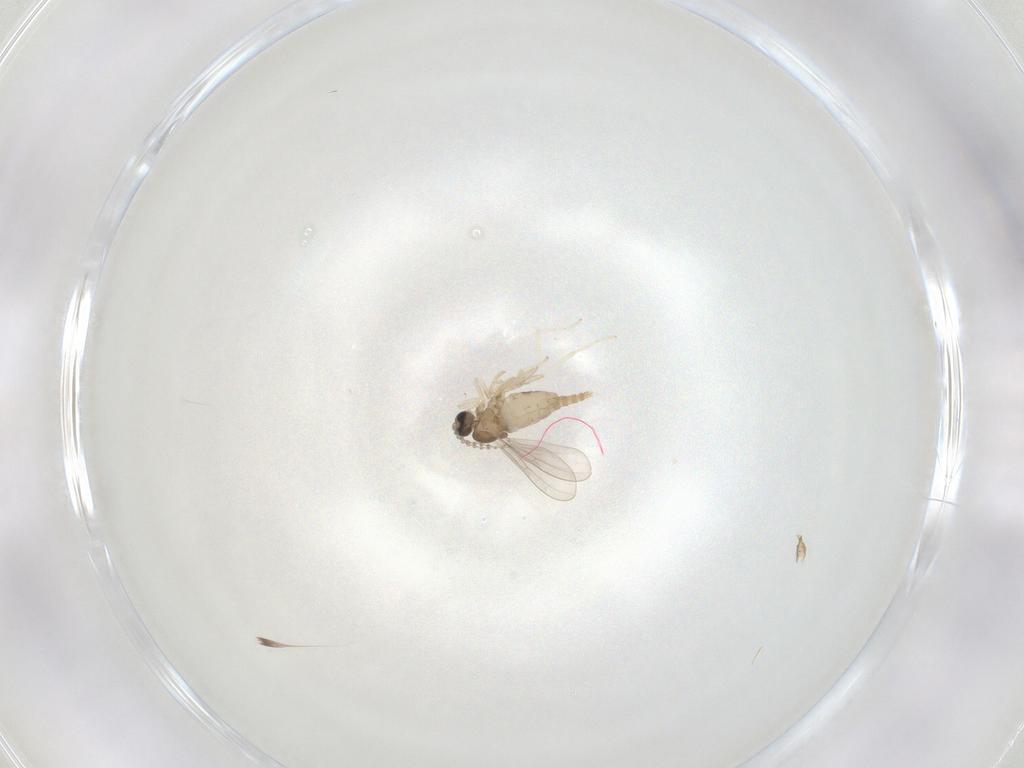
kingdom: Animalia
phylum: Arthropoda
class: Insecta
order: Diptera
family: Cecidomyiidae
